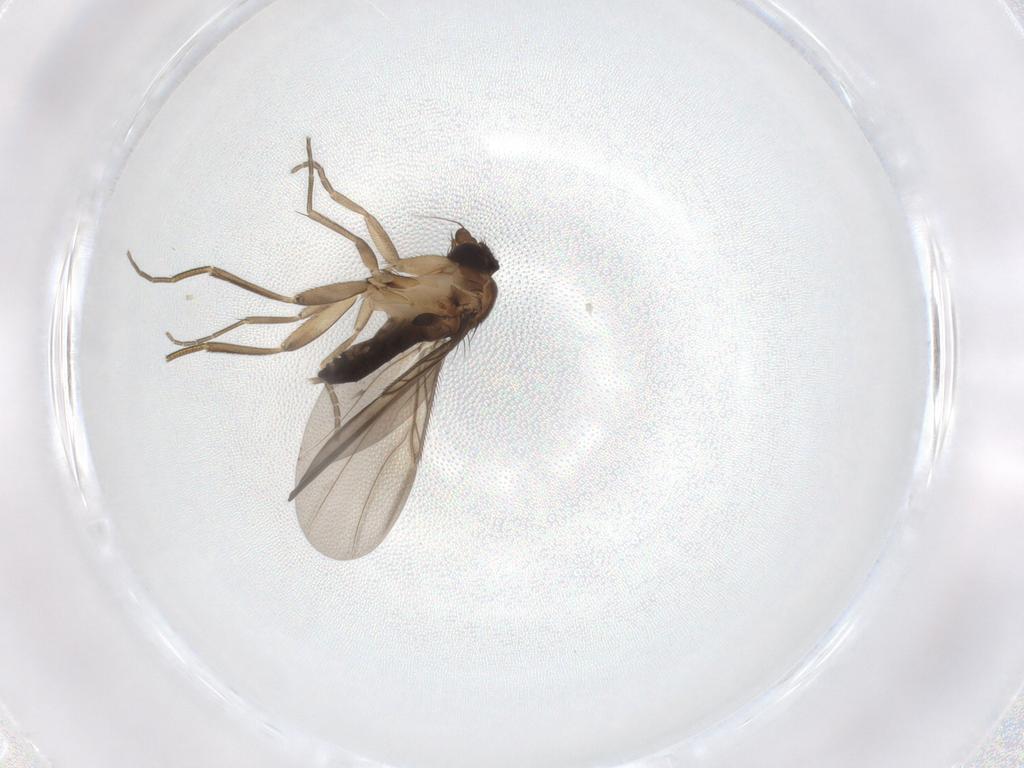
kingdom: Animalia
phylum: Arthropoda
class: Insecta
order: Diptera
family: Phoridae
